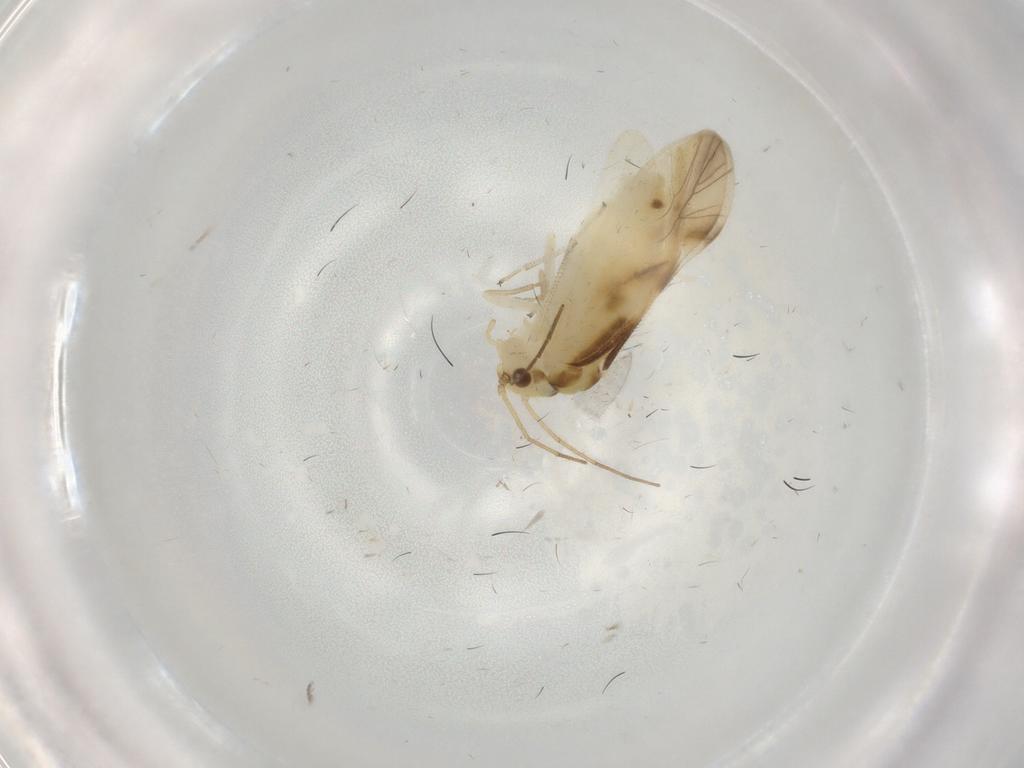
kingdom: Animalia
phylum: Arthropoda
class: Insecta
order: Psocodea
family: Caeciliusidae
